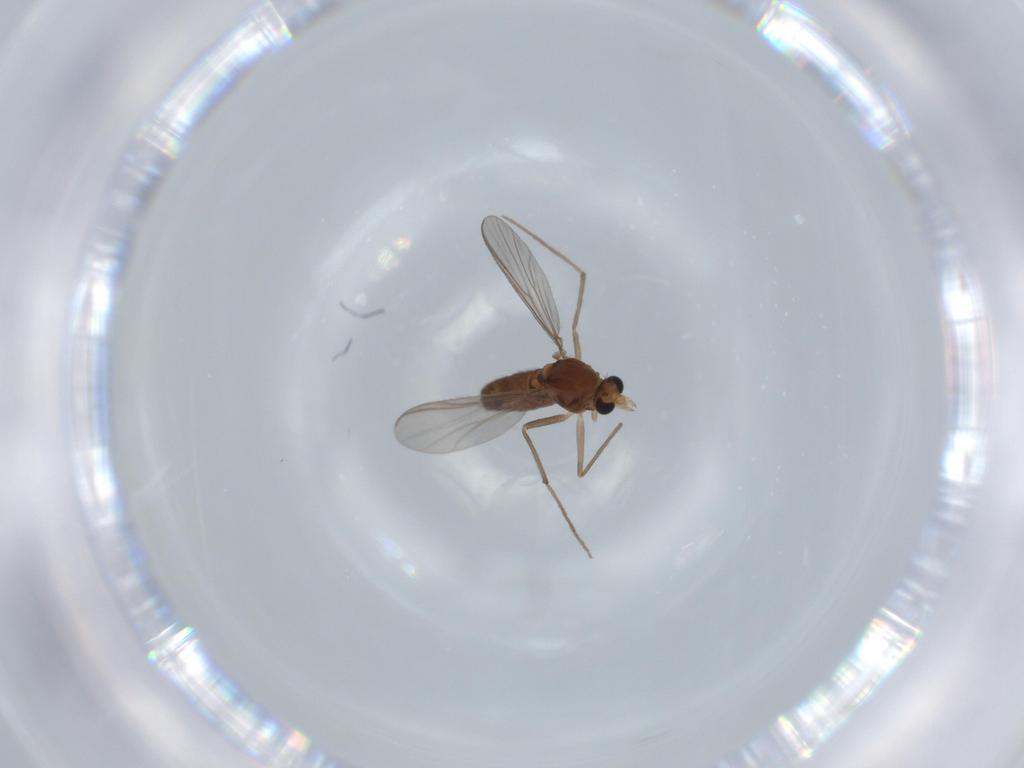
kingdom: Animalia
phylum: Arthropoda
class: Insecta
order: Diptera
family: Chironomidae
